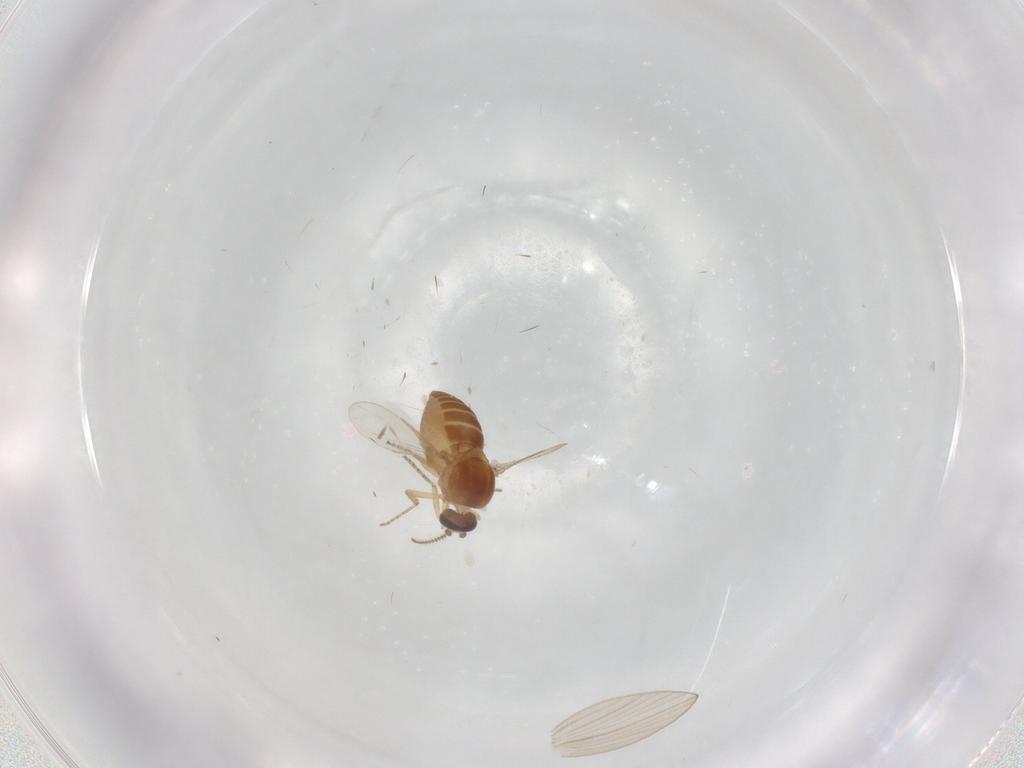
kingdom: Animalia
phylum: Arthropoda
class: Insecta
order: Diptera
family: Ceratopogonidae
